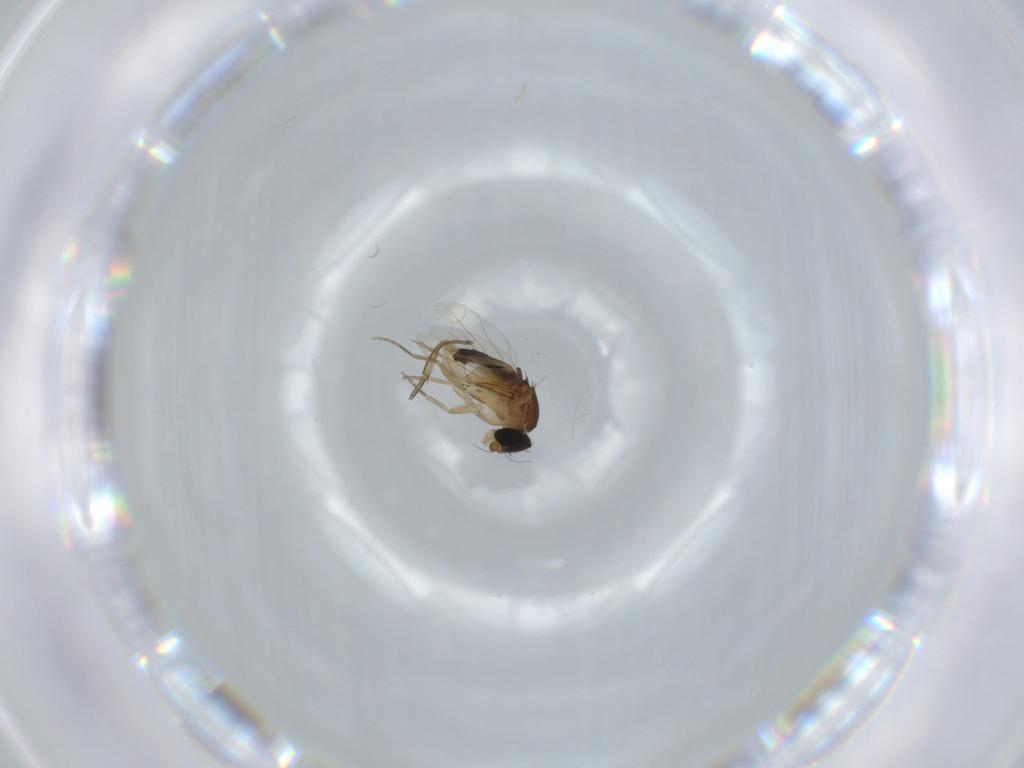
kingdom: Animalia
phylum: Arthropoda
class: Insecta
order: Diptera
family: Phoridae
